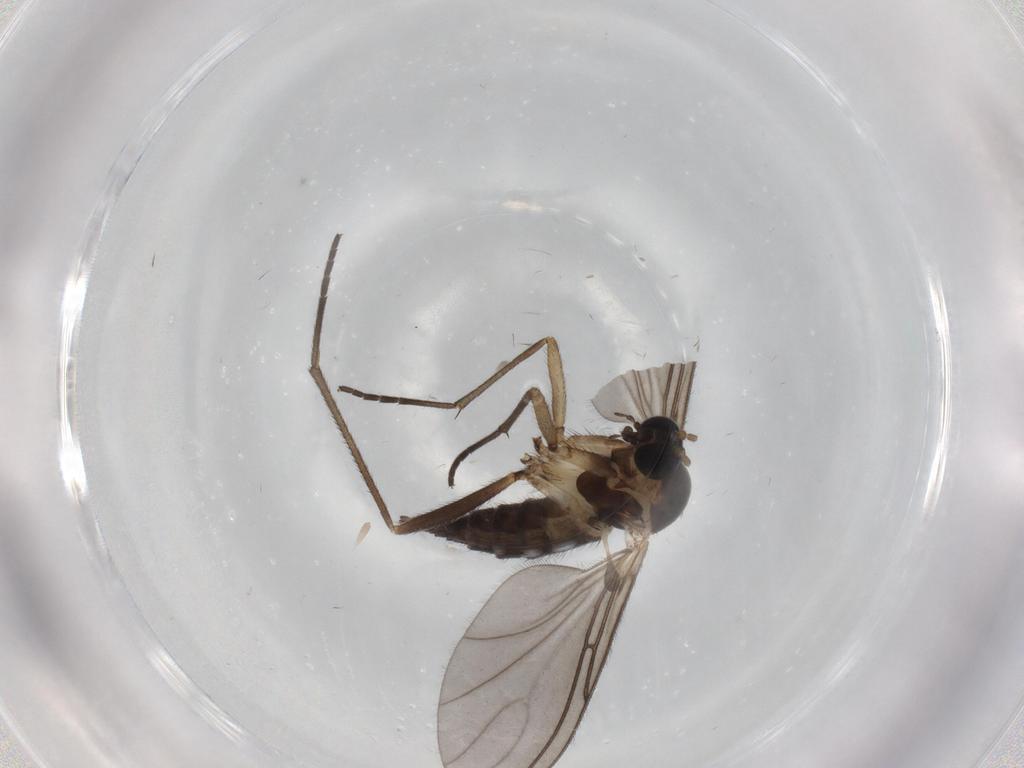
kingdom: Animalia
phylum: Arthropoda
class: Insecta
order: Diptera
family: Sciaridae
